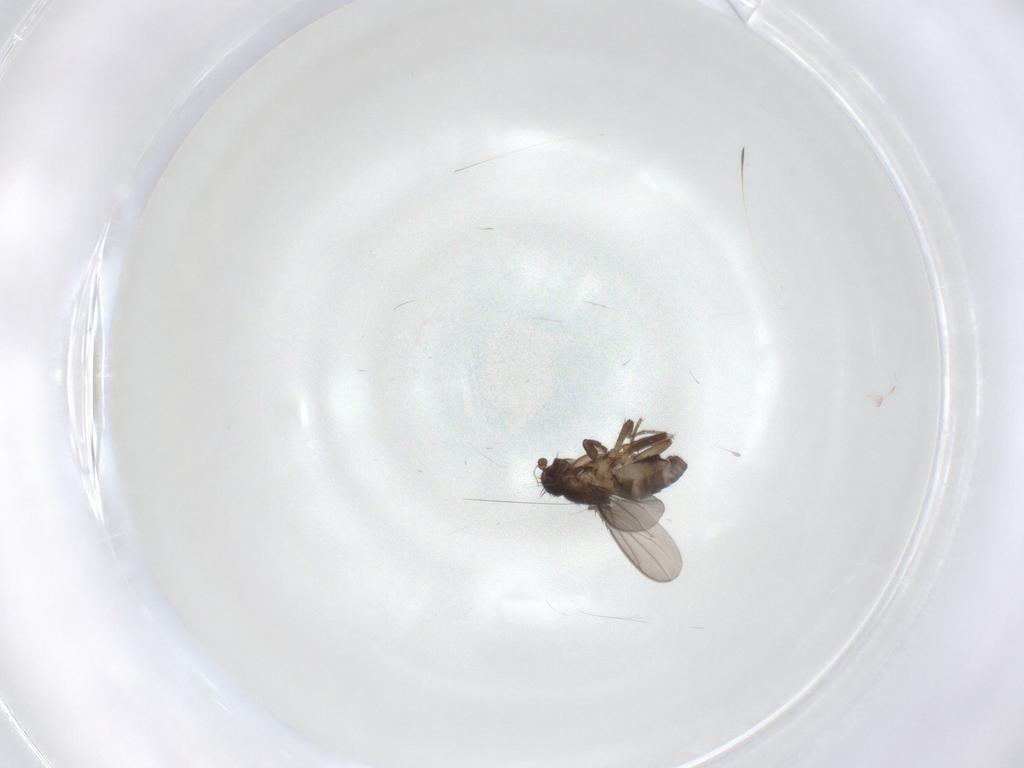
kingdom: Animalia
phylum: Arthropoda
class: Insecta
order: Diptera
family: Sciaridae
